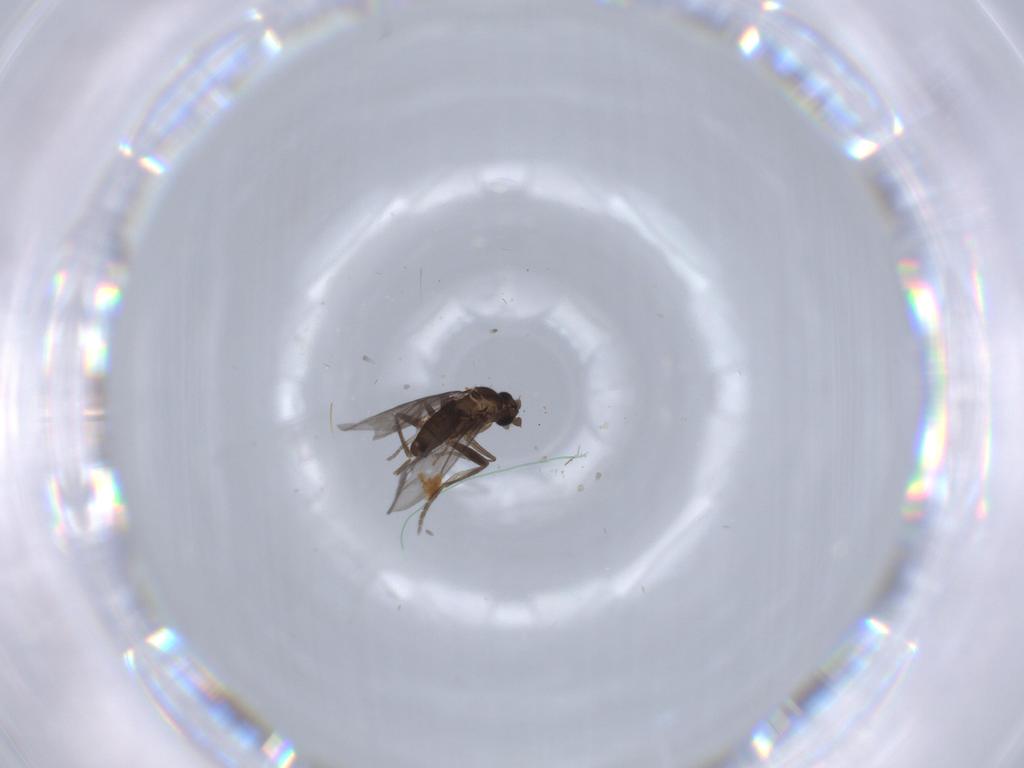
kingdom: Animalia
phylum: Arthropoda
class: Insecta
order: Diptera
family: Phoridae
